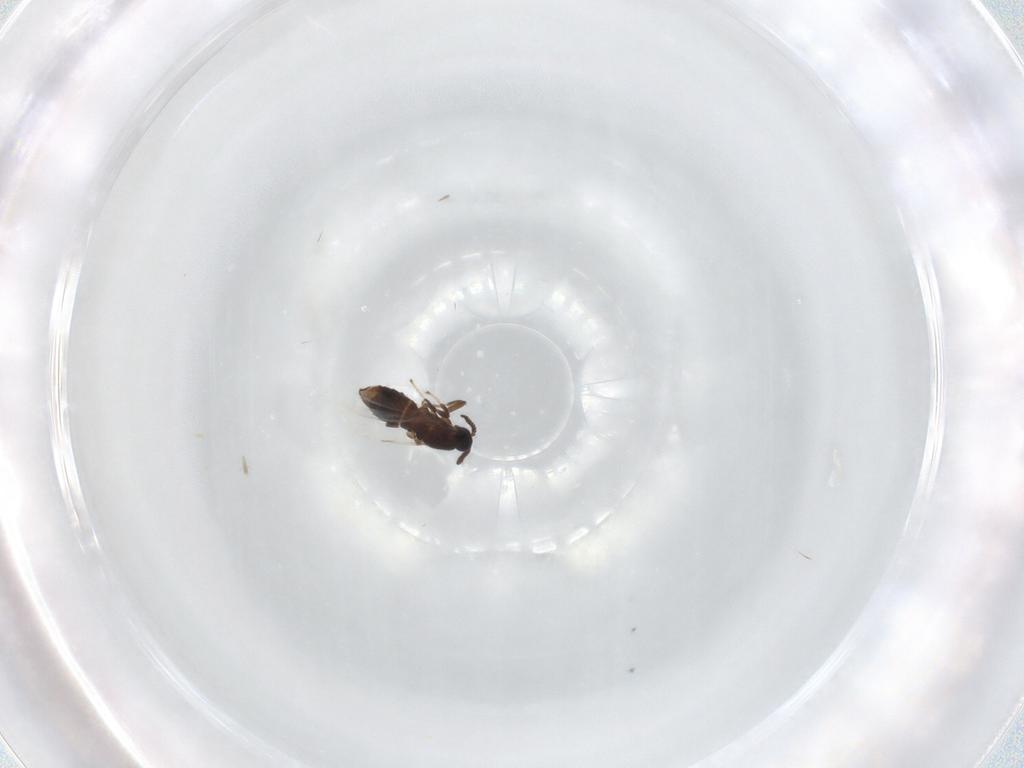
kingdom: Animalia
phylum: Arthropoda
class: Insecta
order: Diptera
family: Scatopsidae
